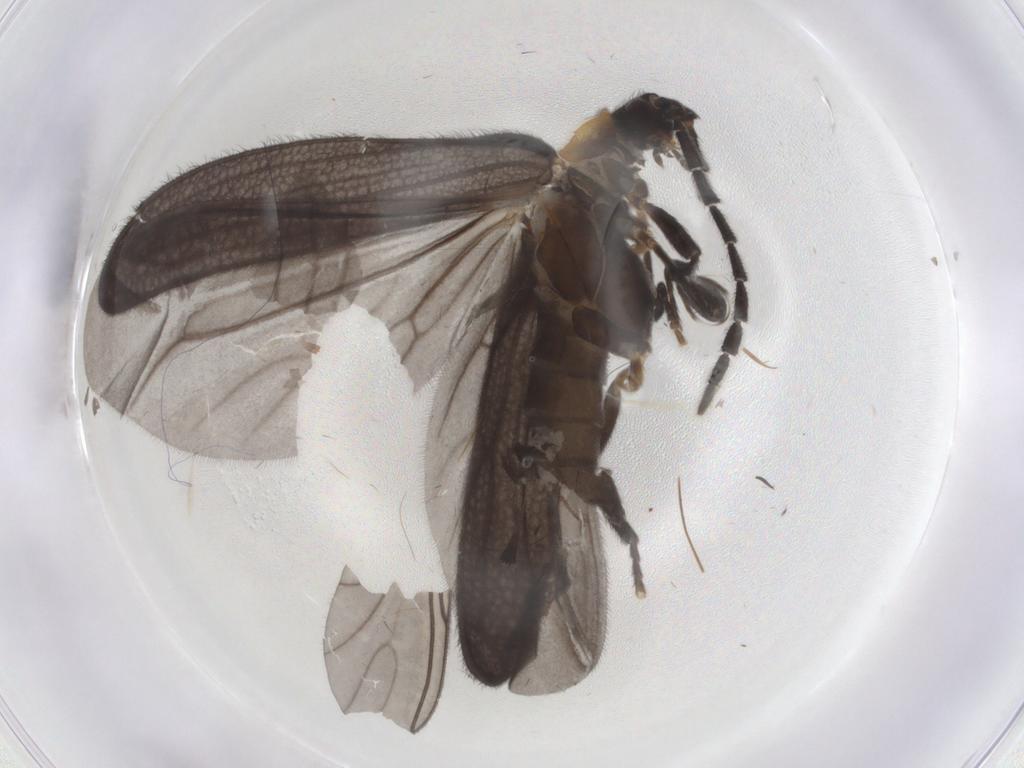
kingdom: Animalia
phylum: Arthropoda
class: Insecta
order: Coleoptera
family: Lycidae
